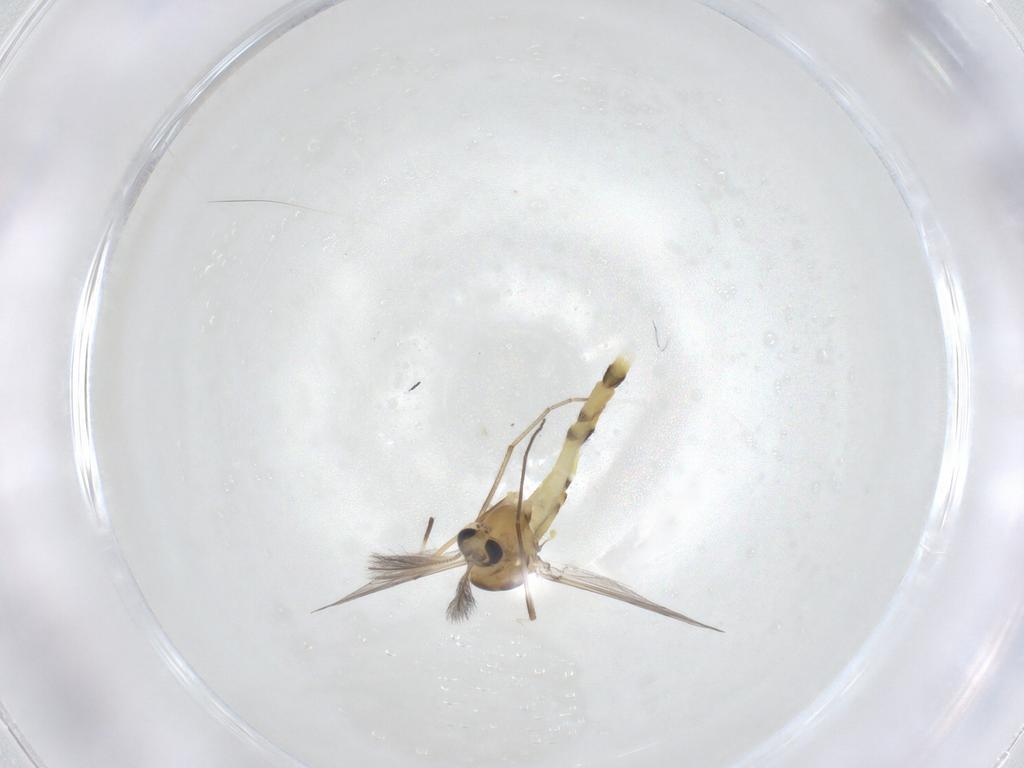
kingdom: Animalia
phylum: Arthropoda
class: Insecta
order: Diptera
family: Chironomidae
